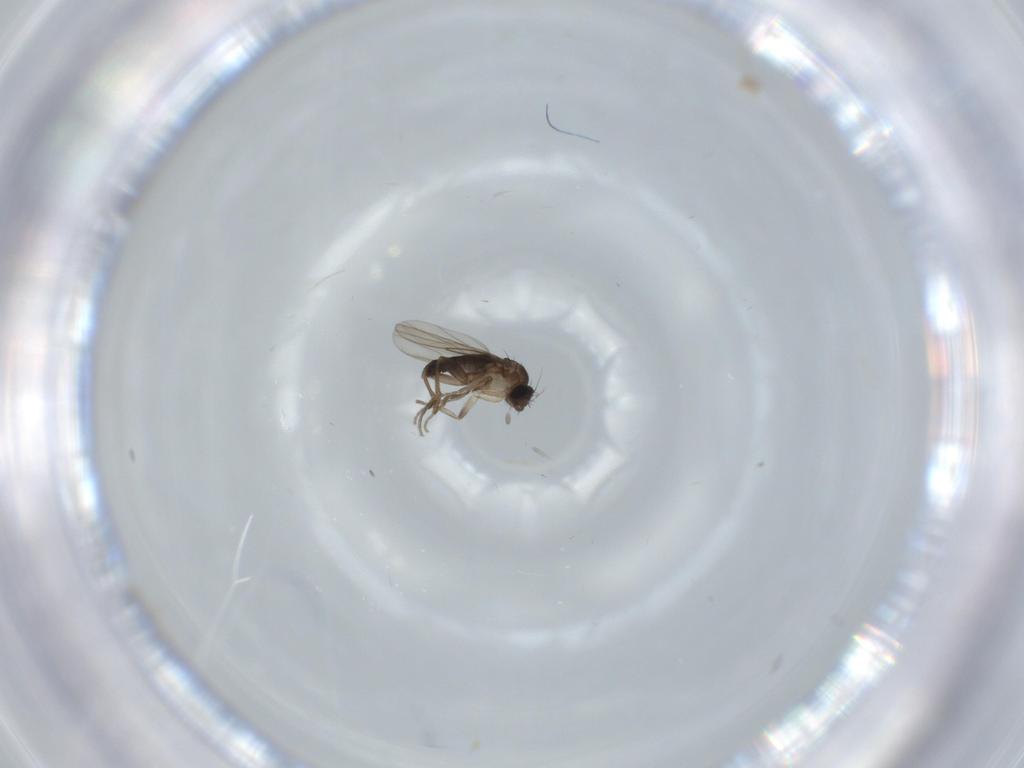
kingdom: Animalia
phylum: Arthropoda
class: Insecta
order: Diptera
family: Phoridae
